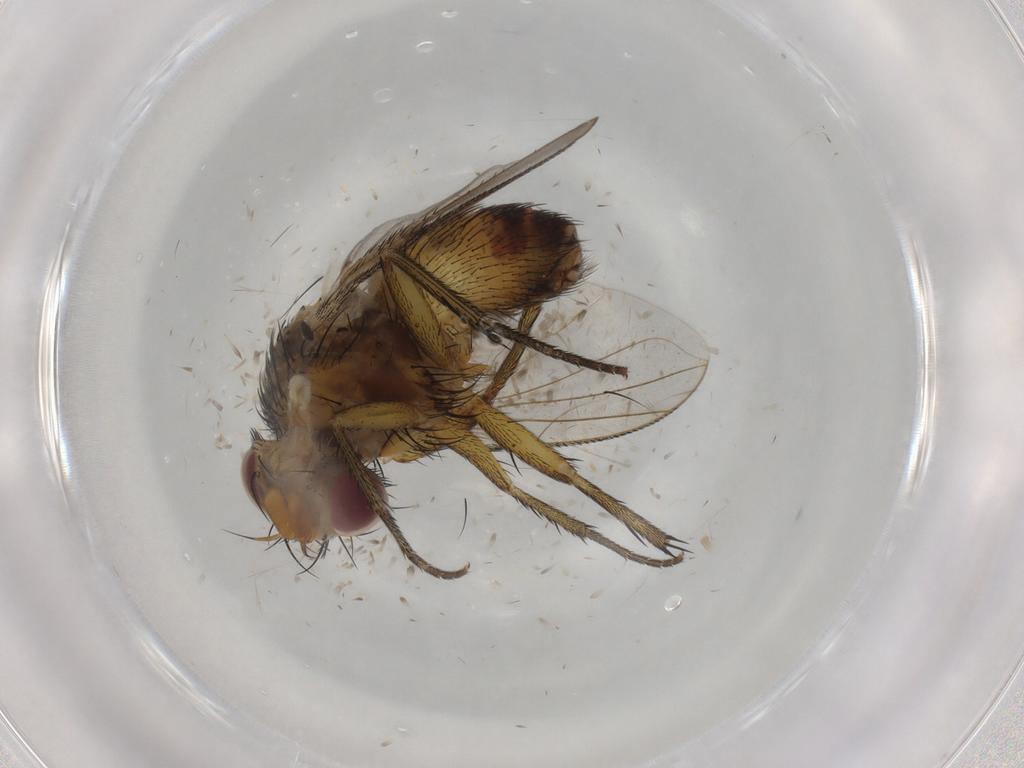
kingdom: Animalia
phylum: Arthropoda
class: Insecta
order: Diptera
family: Tachinidae
